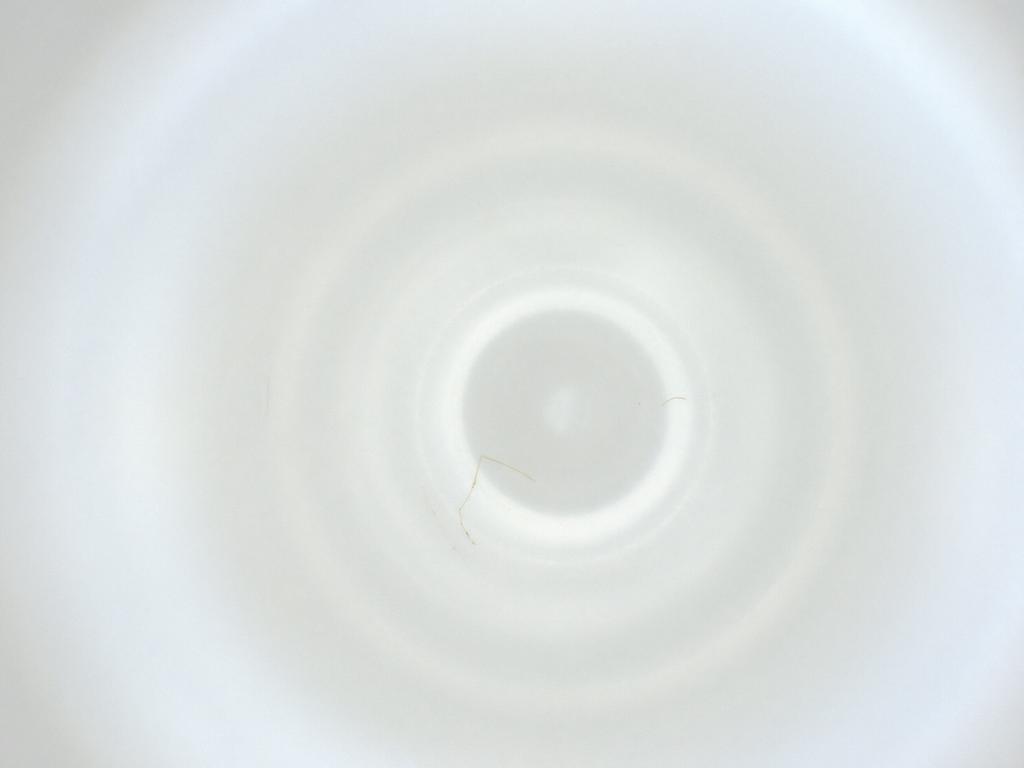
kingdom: Animalia
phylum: Arthropoda
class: Insecta
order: Diptera
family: Cecidomyiidae
